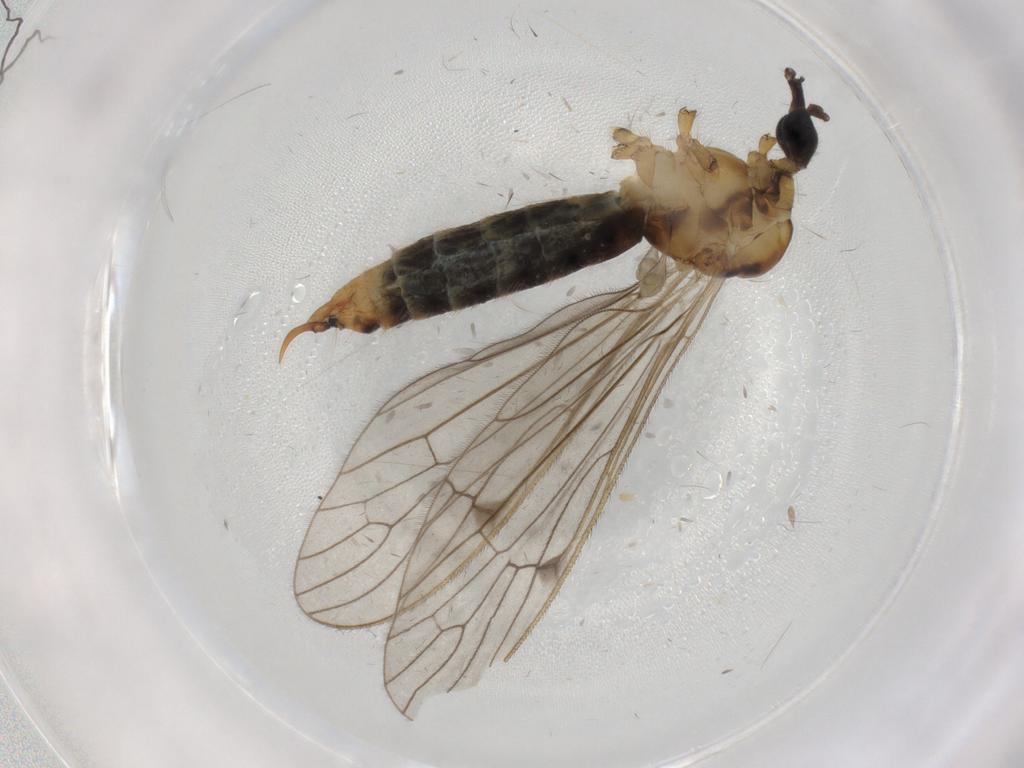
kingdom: Animalia
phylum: Arthropoda
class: Insecta
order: Diptera
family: Limoniidae
